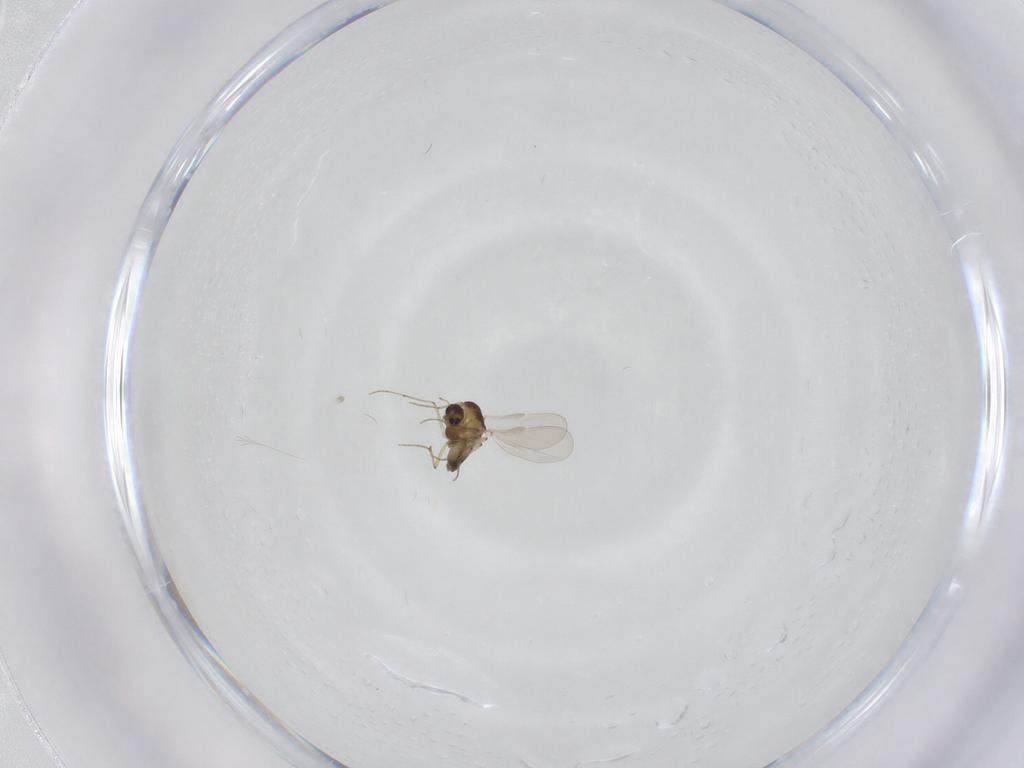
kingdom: Animalia
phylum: Arthropoda
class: Insecta
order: Diptera
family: Chironomidae
